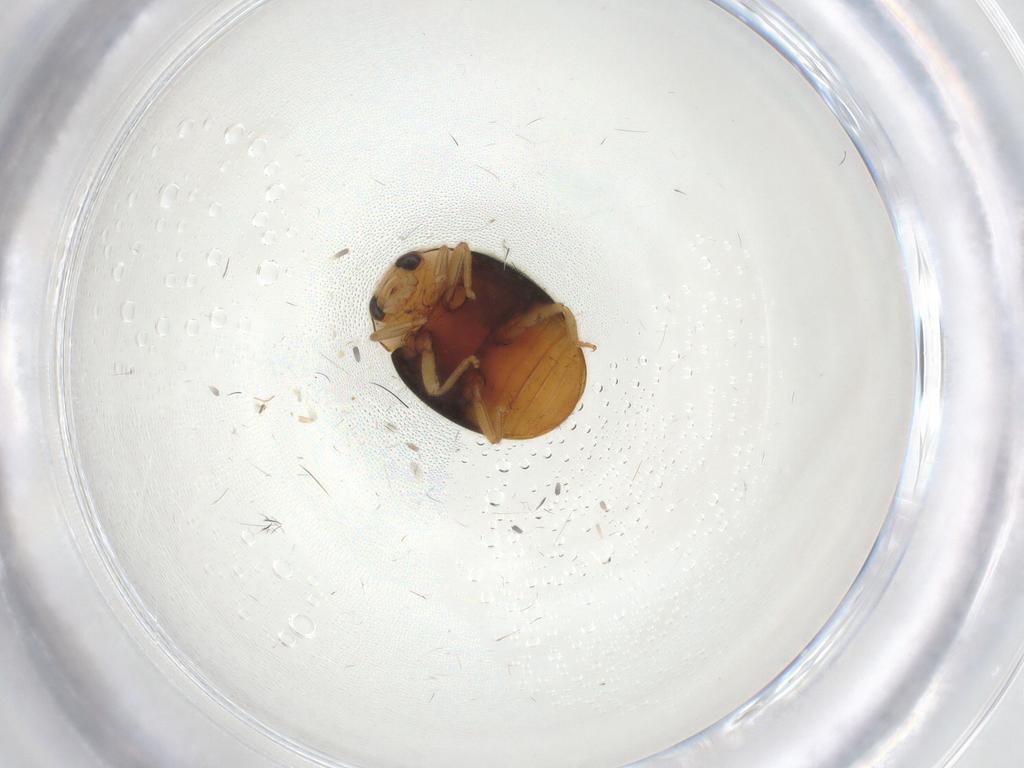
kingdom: Animalia
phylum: Arthropoda
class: Insecta
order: Coleoptera
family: Coccinellidae
